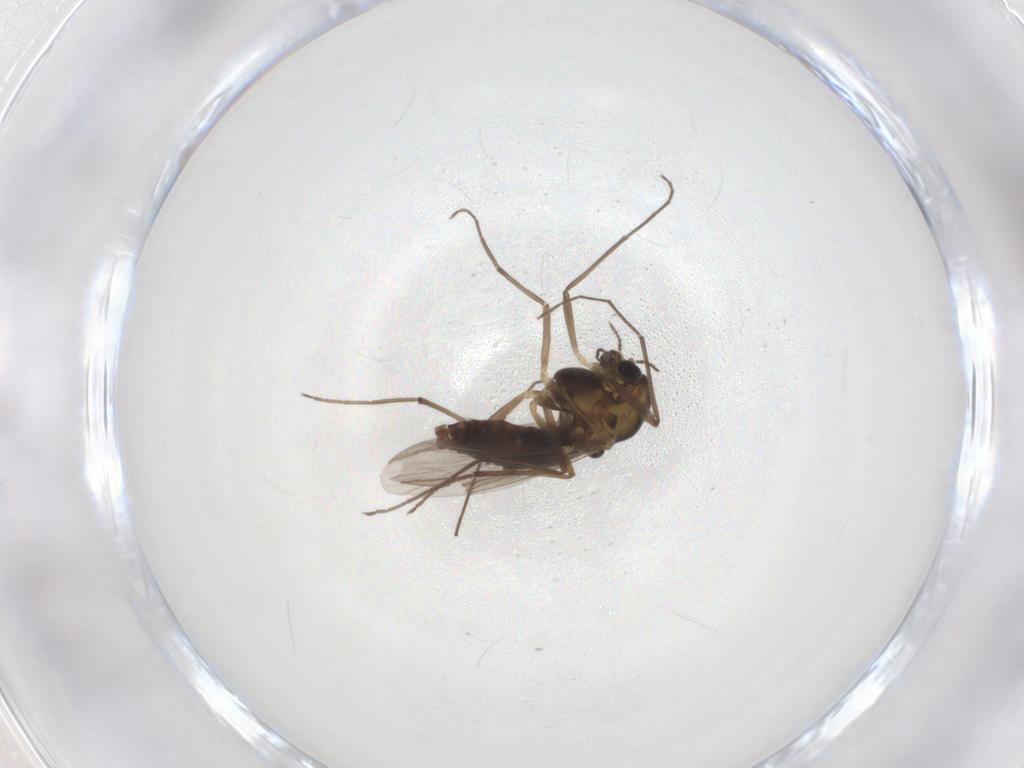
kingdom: Animalia
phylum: Arthropoda
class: Insecta
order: Diptera
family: Chironomidae
